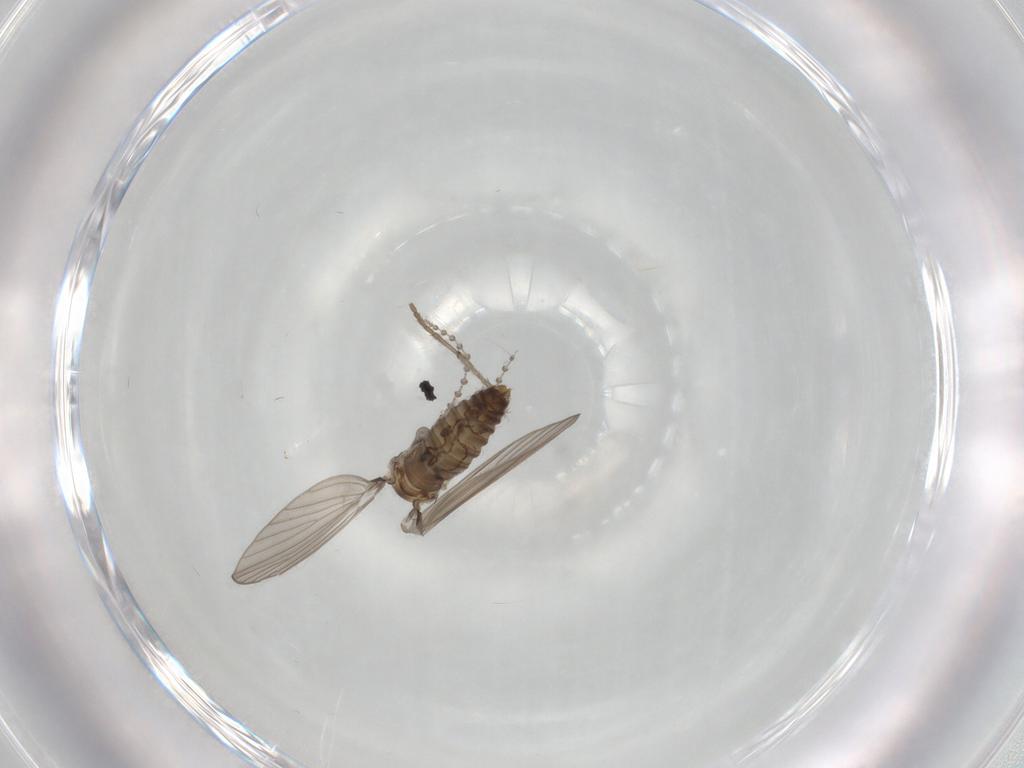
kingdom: Animalia
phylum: Arthropoda
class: Insecta
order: Diptera
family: Psychodidae
